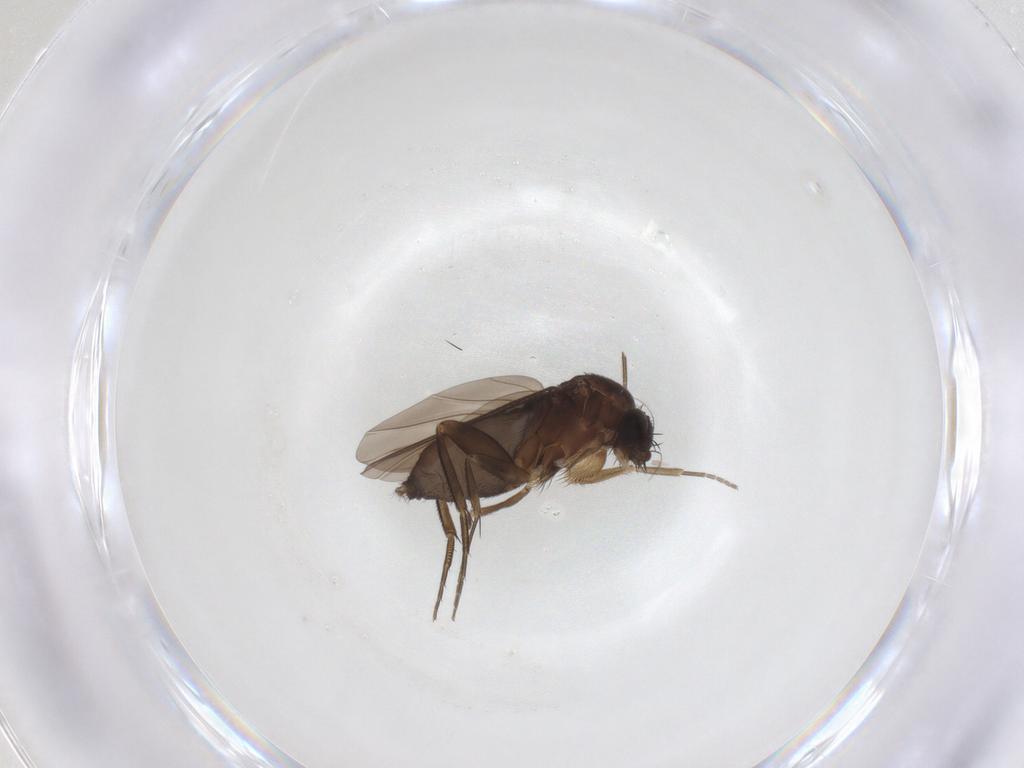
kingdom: Animalia
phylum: Arthropoda
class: Insecta
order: Diptera
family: Phoridae
